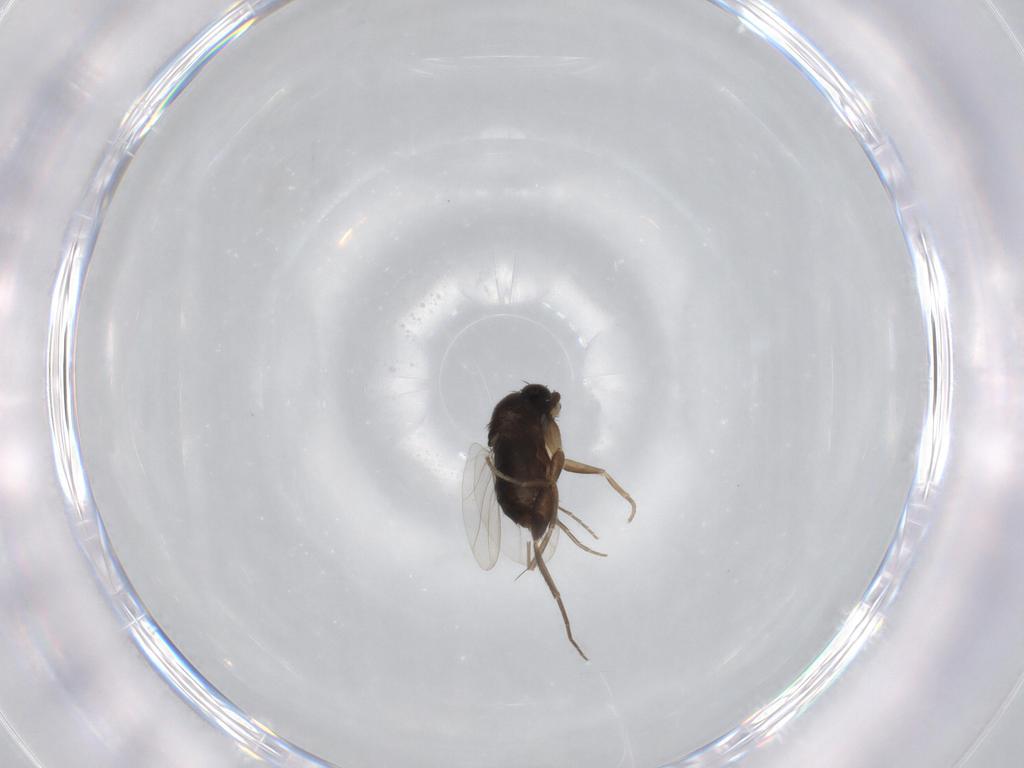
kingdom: Animalia
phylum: Arthropoda
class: Insecta
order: Diptera
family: Phoridae
